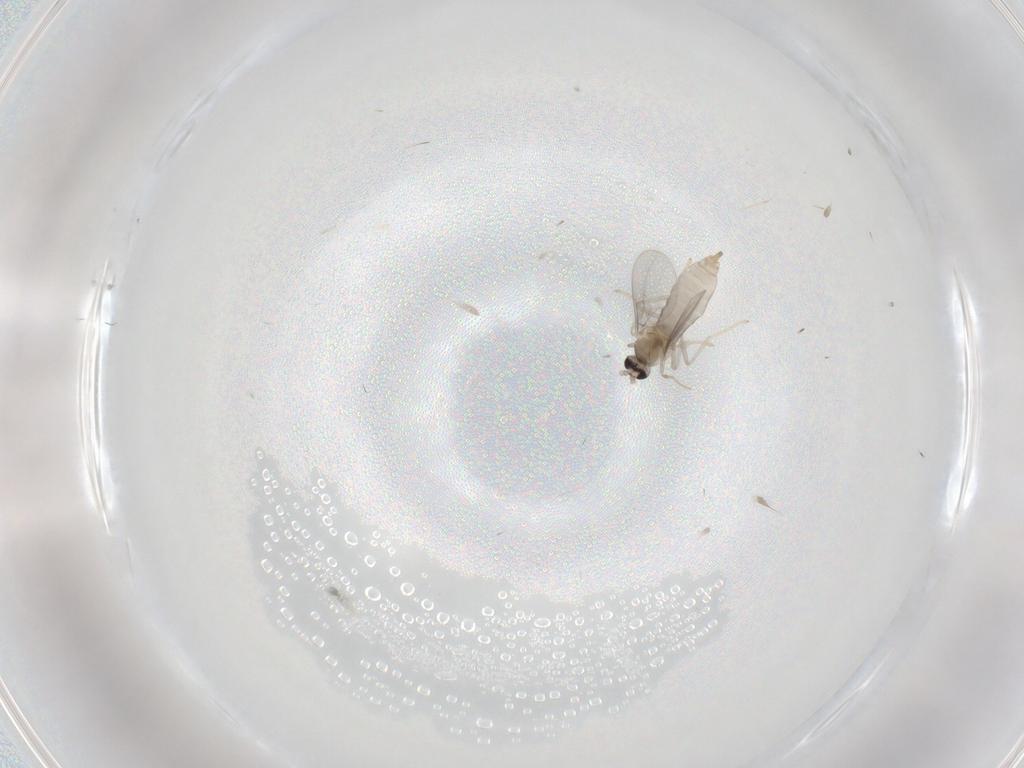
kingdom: Animalia
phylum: Arthropoda
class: Insecta
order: Diptera
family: Cecidomyiidae
